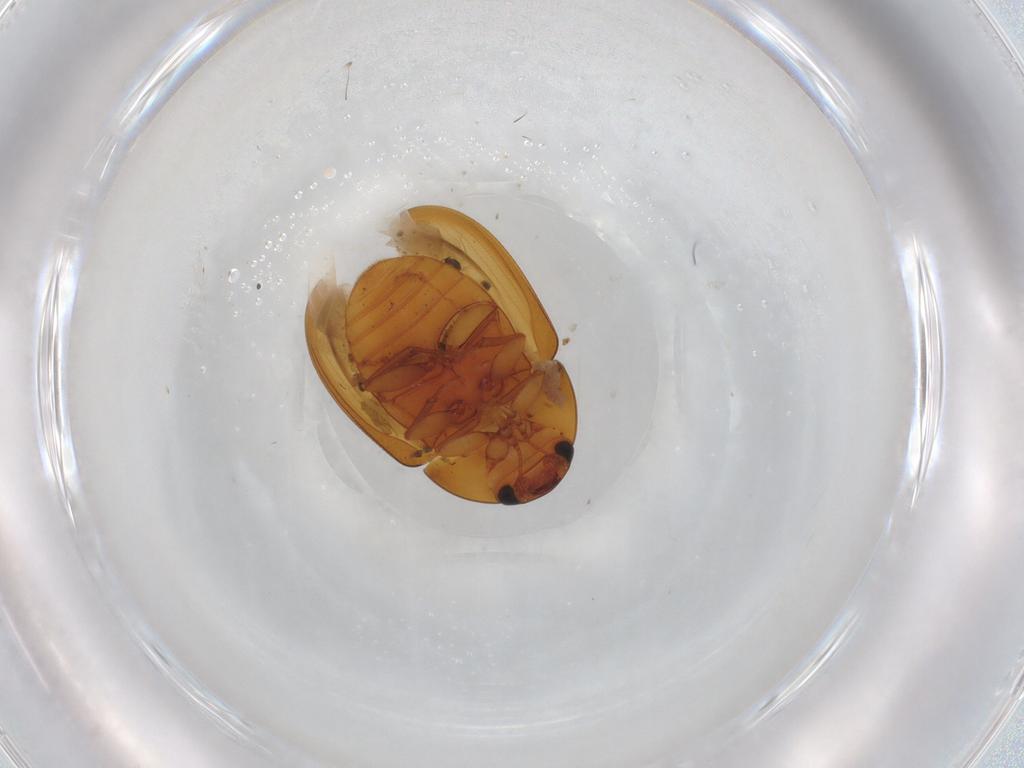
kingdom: Animalia
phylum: Arthropoda
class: Insecta
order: Coleoptera
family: Phalacridae
